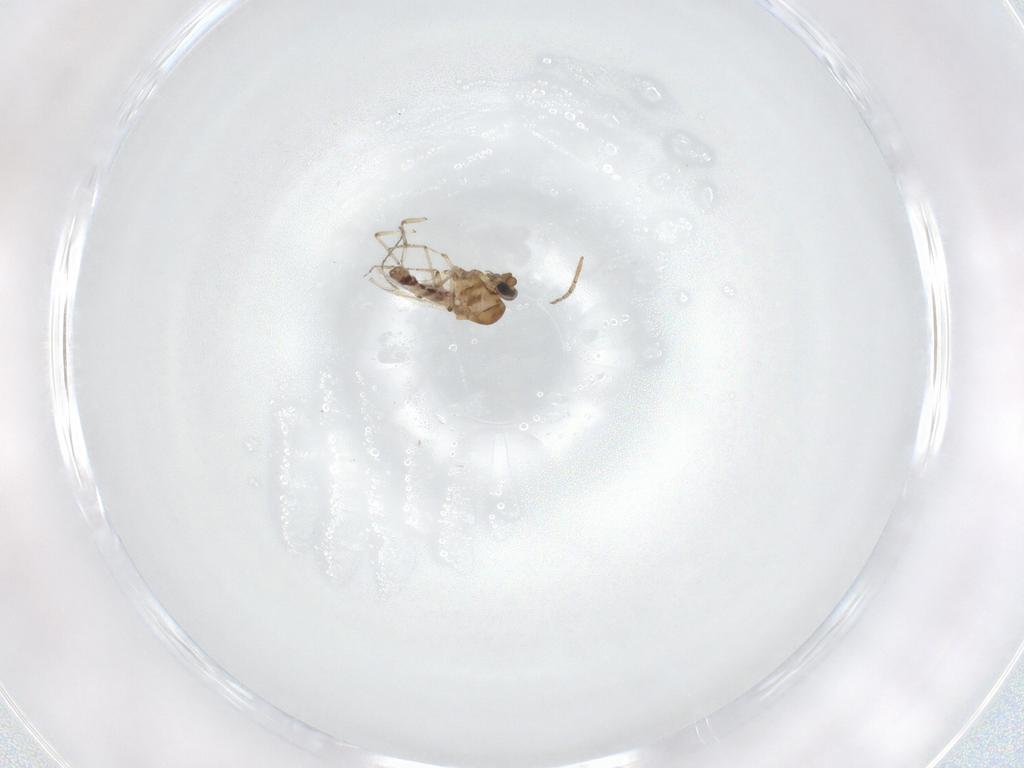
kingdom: Animalia
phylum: Arthropoda
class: Insecta
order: Diptera
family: Ceratopogonidae
